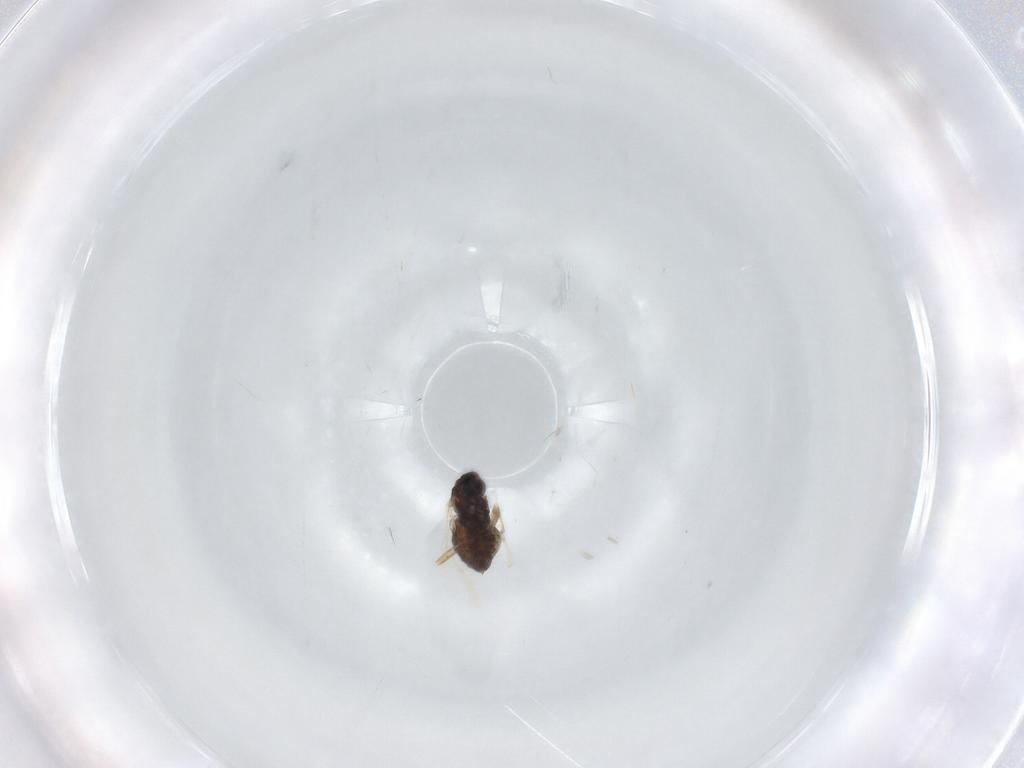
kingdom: Animalia
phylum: Arthropoda
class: Insecta
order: Diptera
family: Cecidomyiidae
